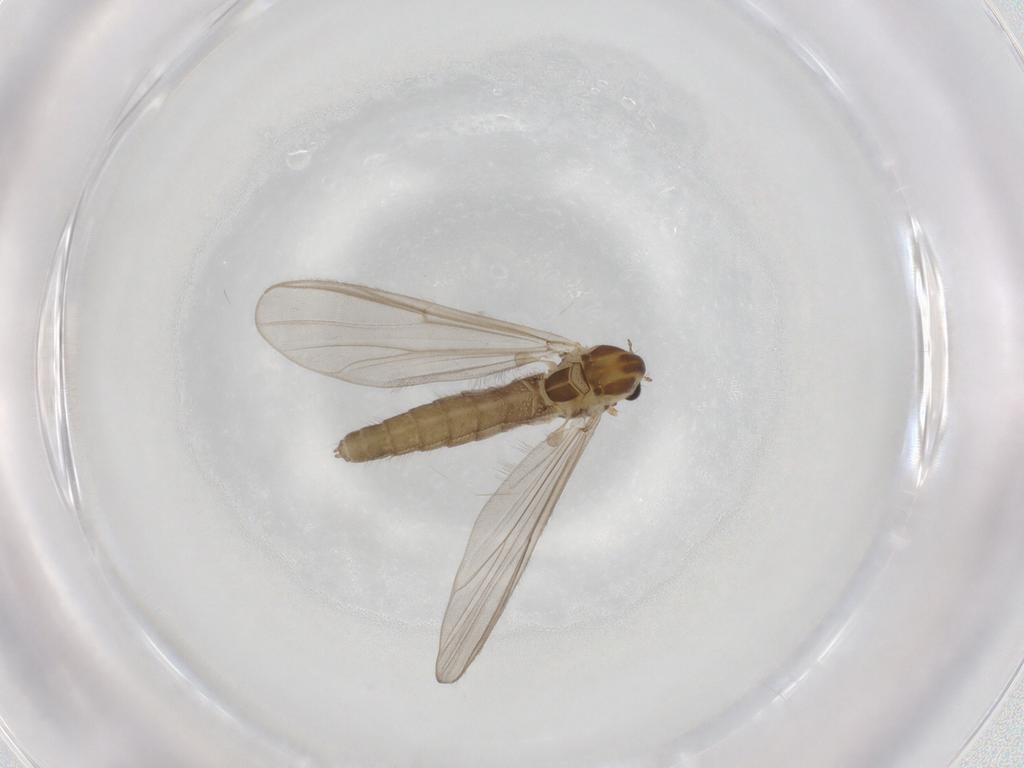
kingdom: Animalia
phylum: Arthropoda
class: Insecta
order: Diptera
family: Chironomidae
